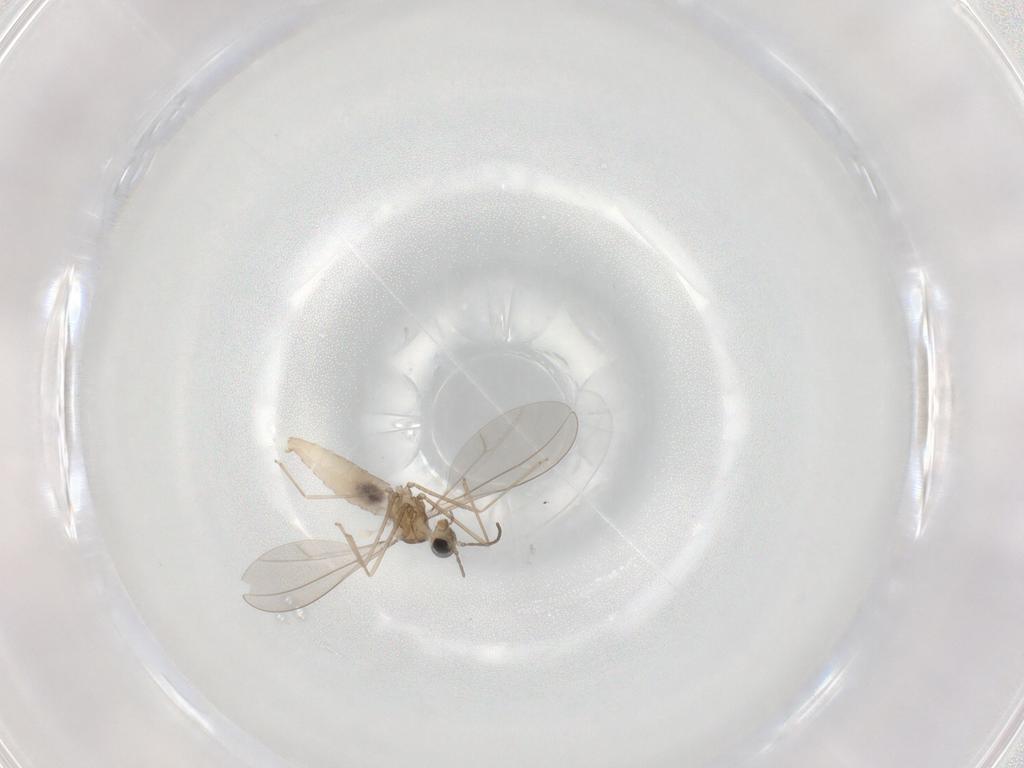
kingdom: Animalia
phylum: Arthropoda
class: Insecta
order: Diptera
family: Cecidomyiidae
